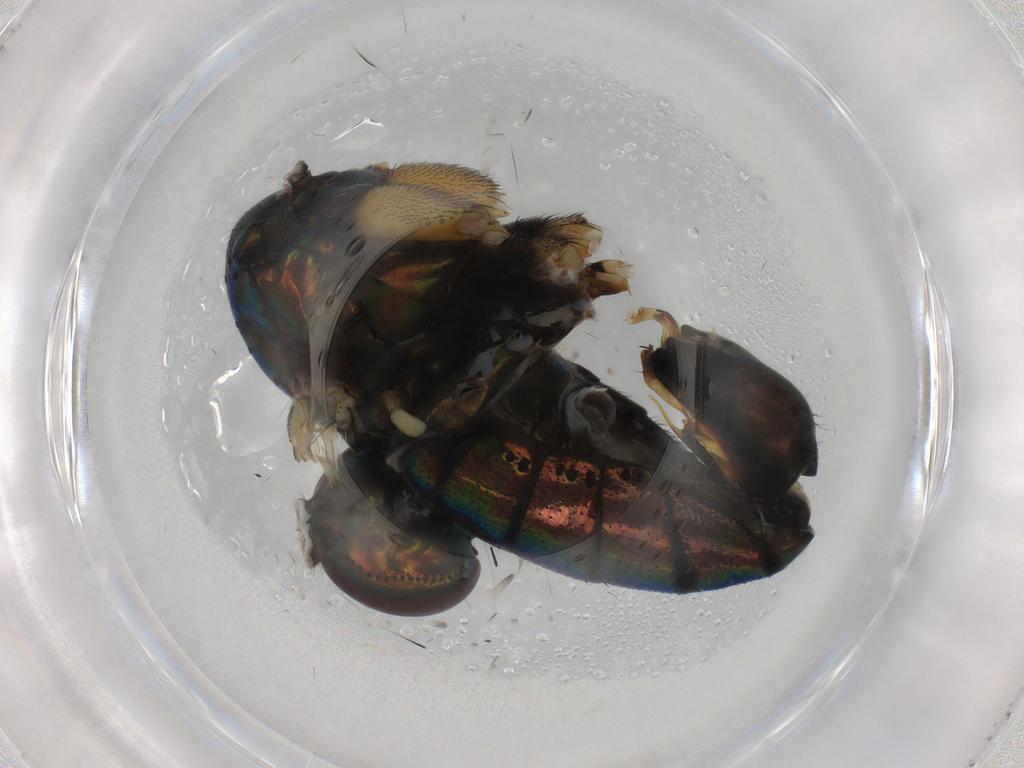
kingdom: Animalia
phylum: Arthropoda
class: Insecta
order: Diptera
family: Dolichopodidae
